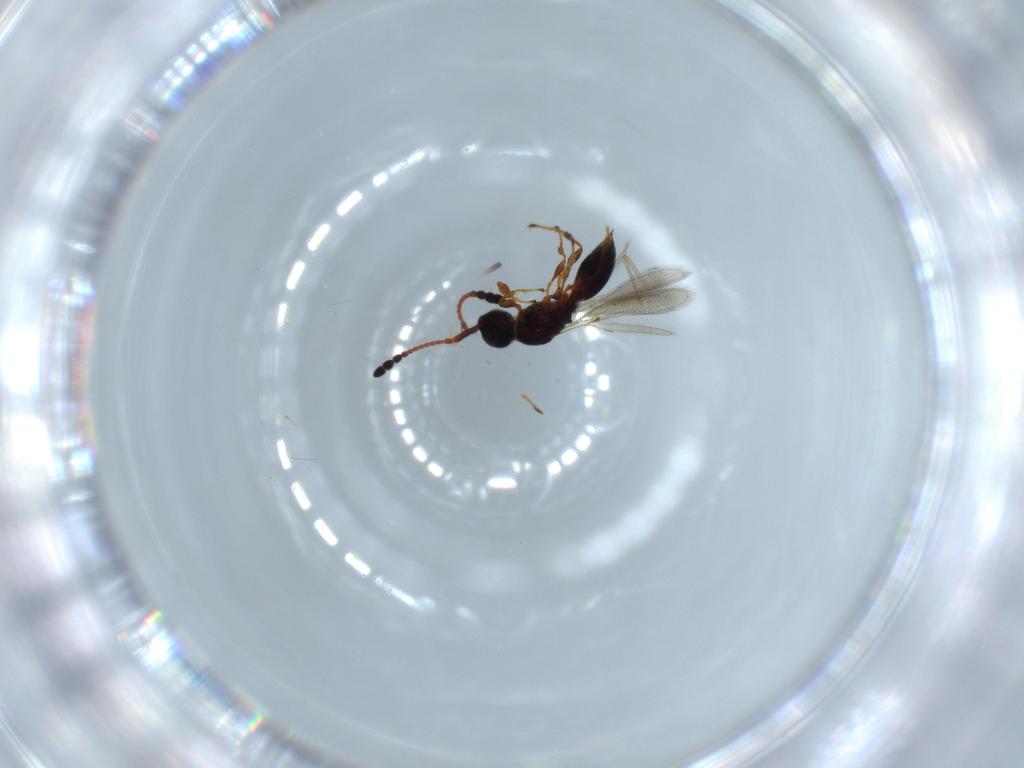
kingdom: Animalia
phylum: Arthropoda
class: Insecta
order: Hymenoptera
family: Diapriidae
